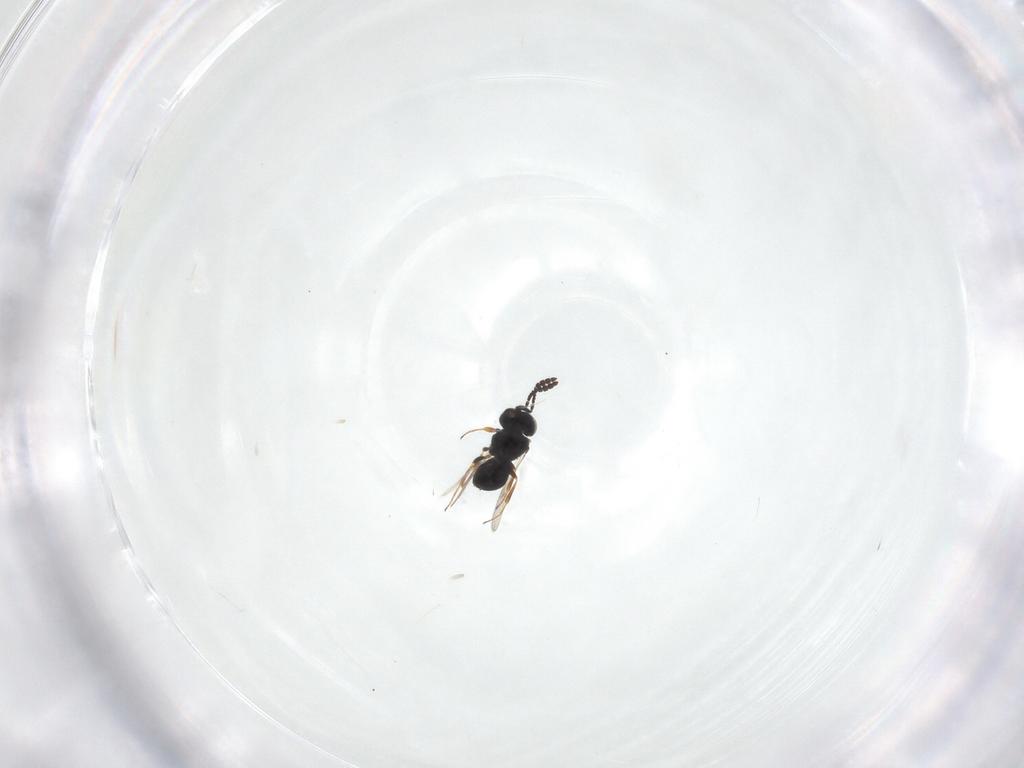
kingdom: Animalia
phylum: Arthropoda
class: Insecta
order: Hymenoptera
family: Scelionidae
